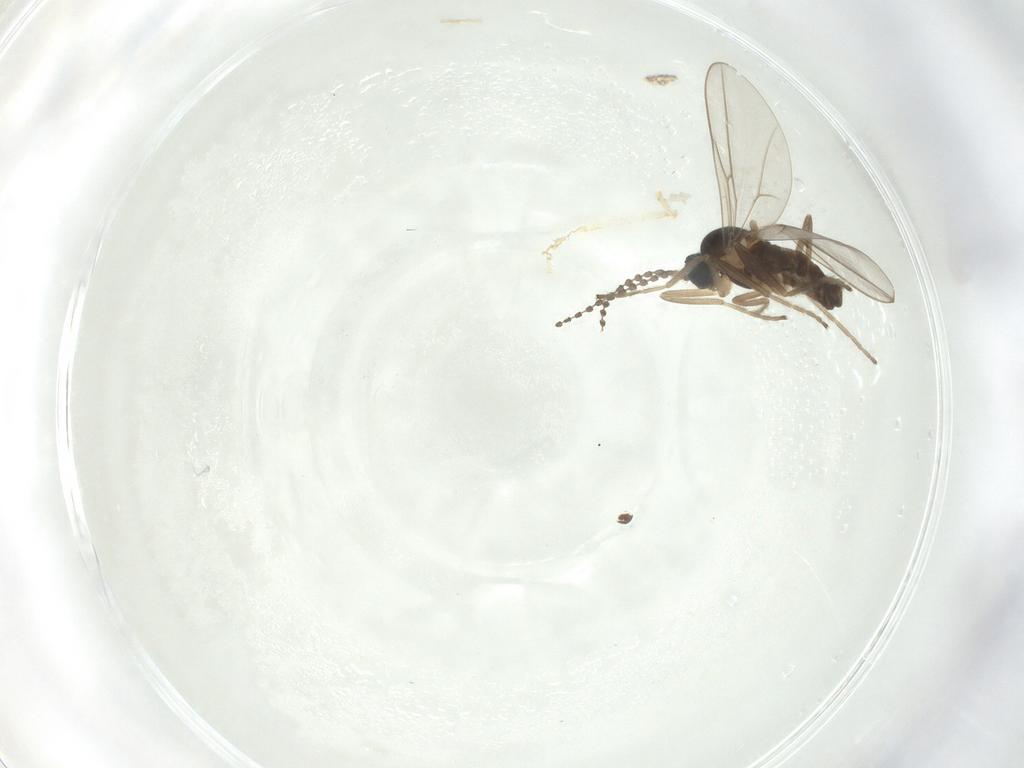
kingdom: Animalia
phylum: Arthropoda
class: Insecta
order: Diptera
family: Cecidomyiidae
